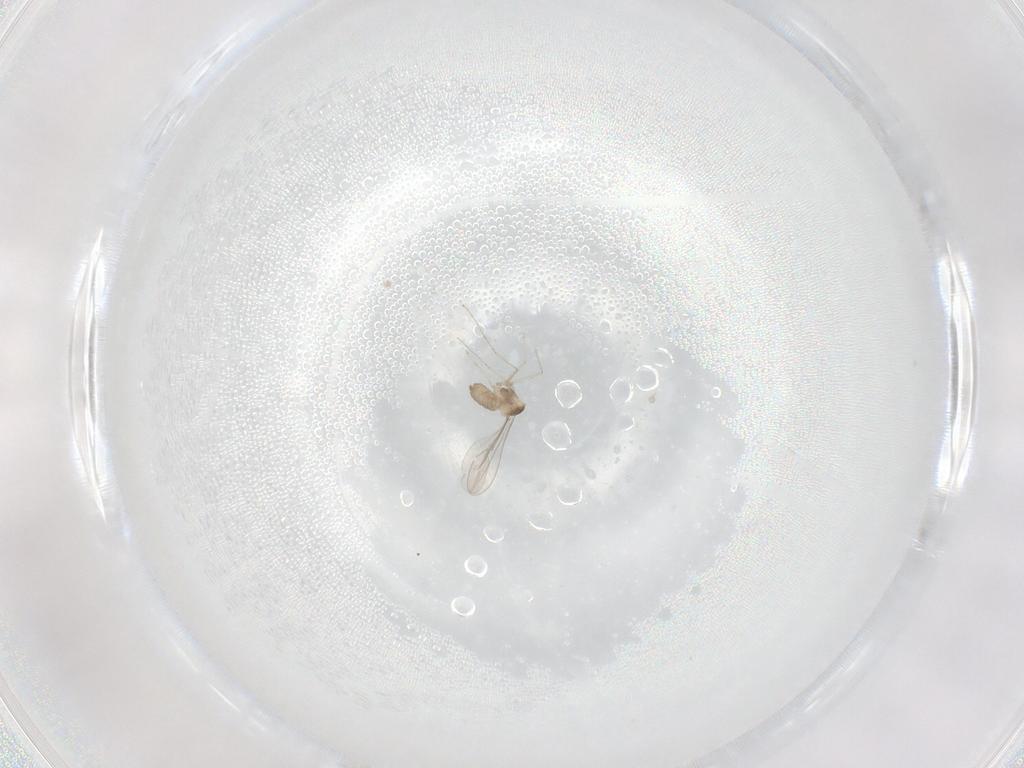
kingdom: Animalia
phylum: Arthropoda
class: Insecta
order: Diptera
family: Cecidomyiidae
